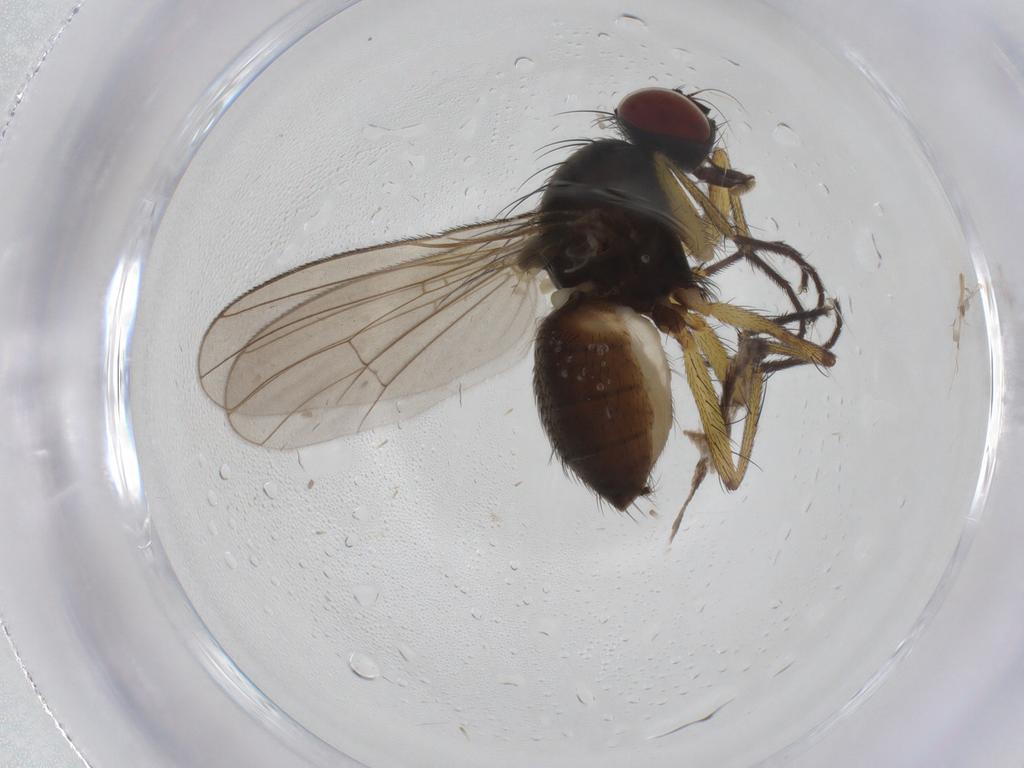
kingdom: Animalia
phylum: Arthropoda
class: Insecta
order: Diptera
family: Muscidae
